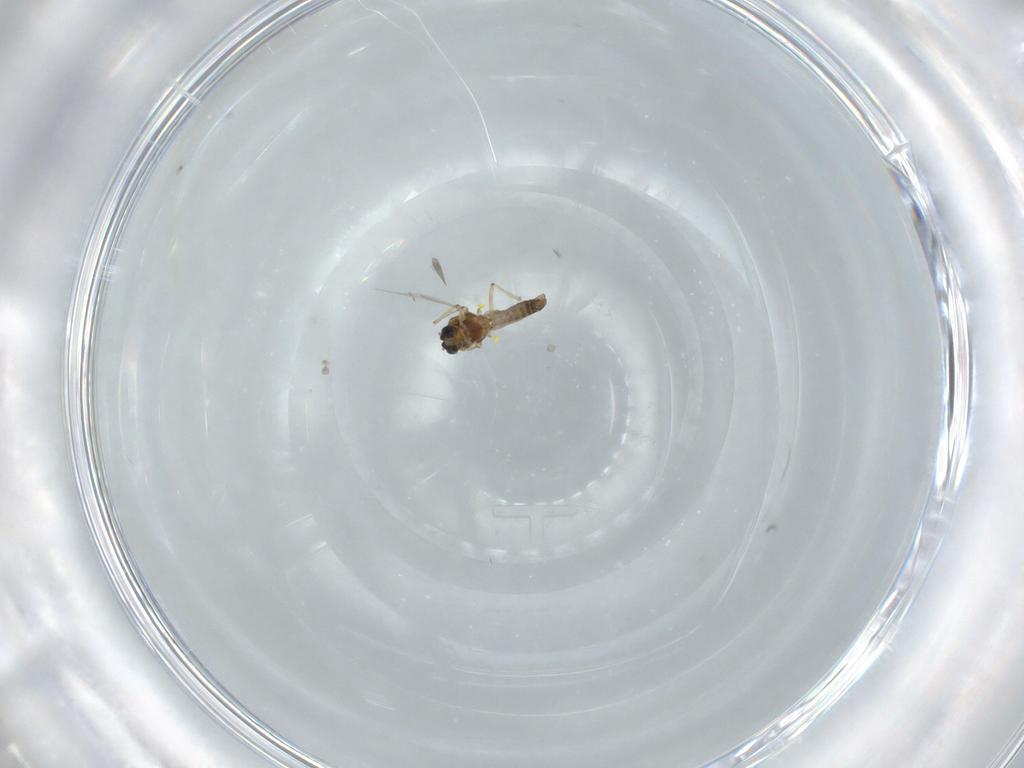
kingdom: Animalia
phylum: Arthropoda
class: Insecta
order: Diptera
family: Ceratopogonidae
